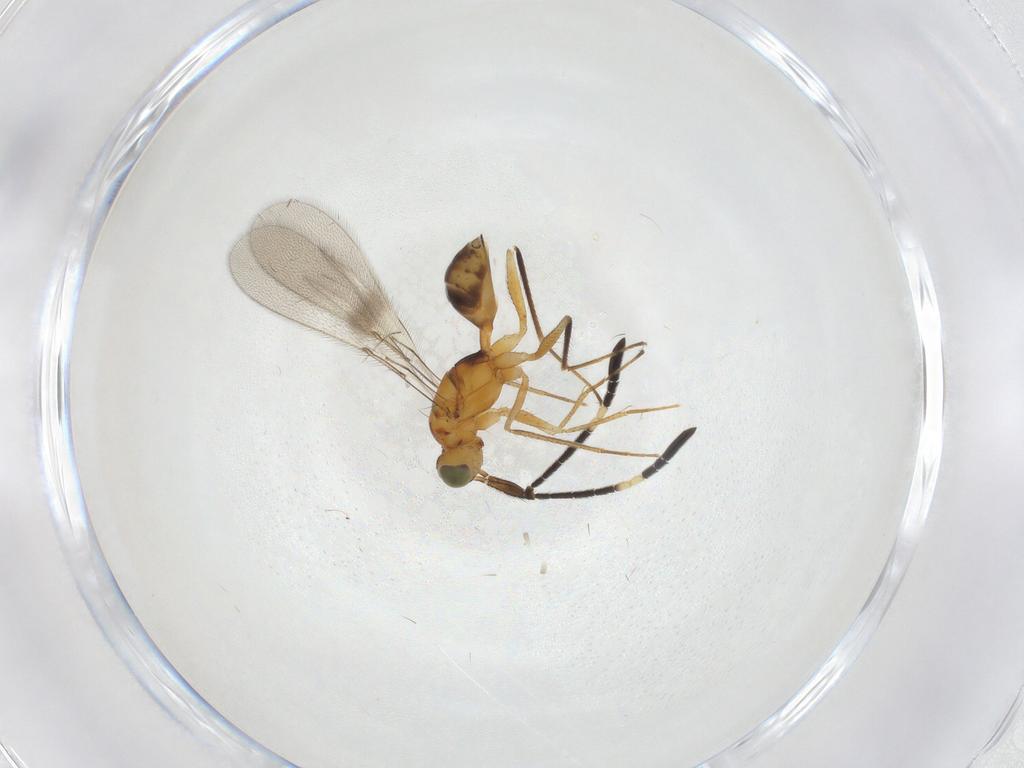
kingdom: Animalia
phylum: Arthropoda
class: Insecta
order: Hymenoptera
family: Mymaridae
